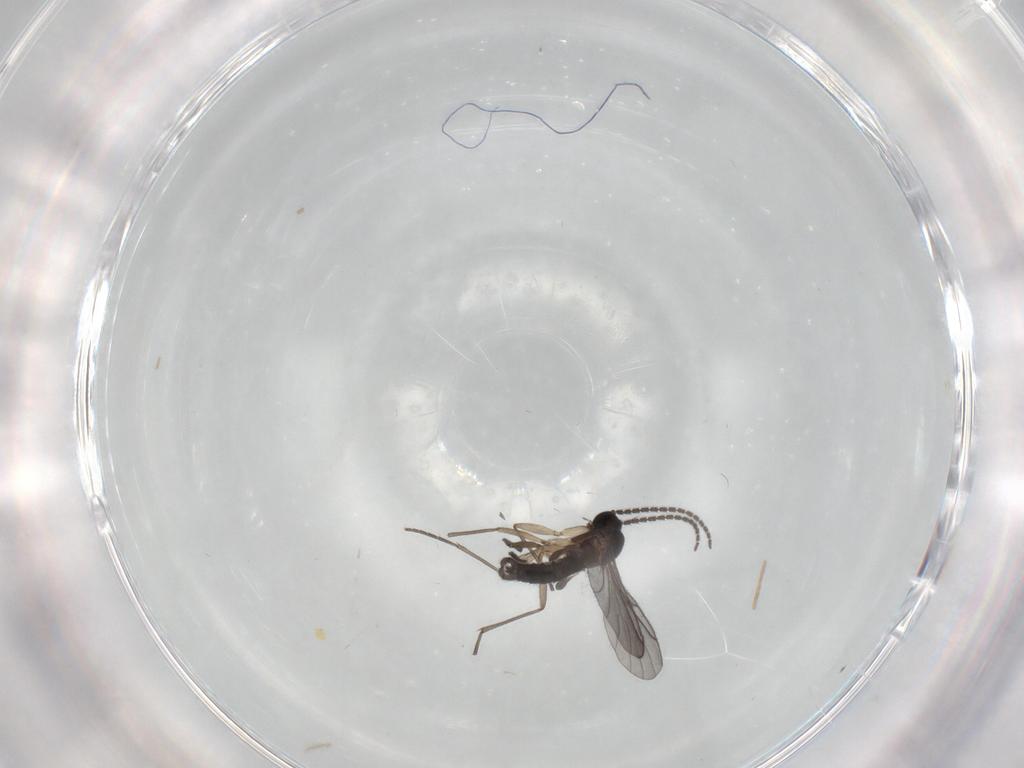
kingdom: Animalia
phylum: Arthropoda
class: Insecta
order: Diptera
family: Sciaridae
